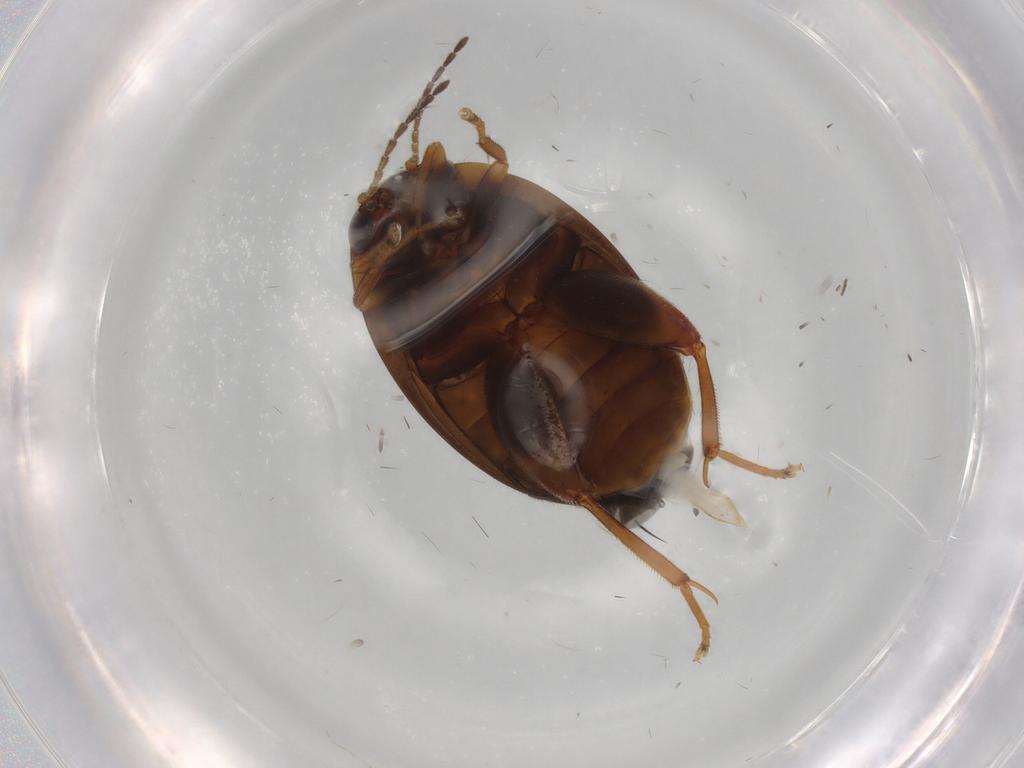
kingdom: Animalia
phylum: Arthropoda
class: Insecta
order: Coleoptera
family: Scirtidae
